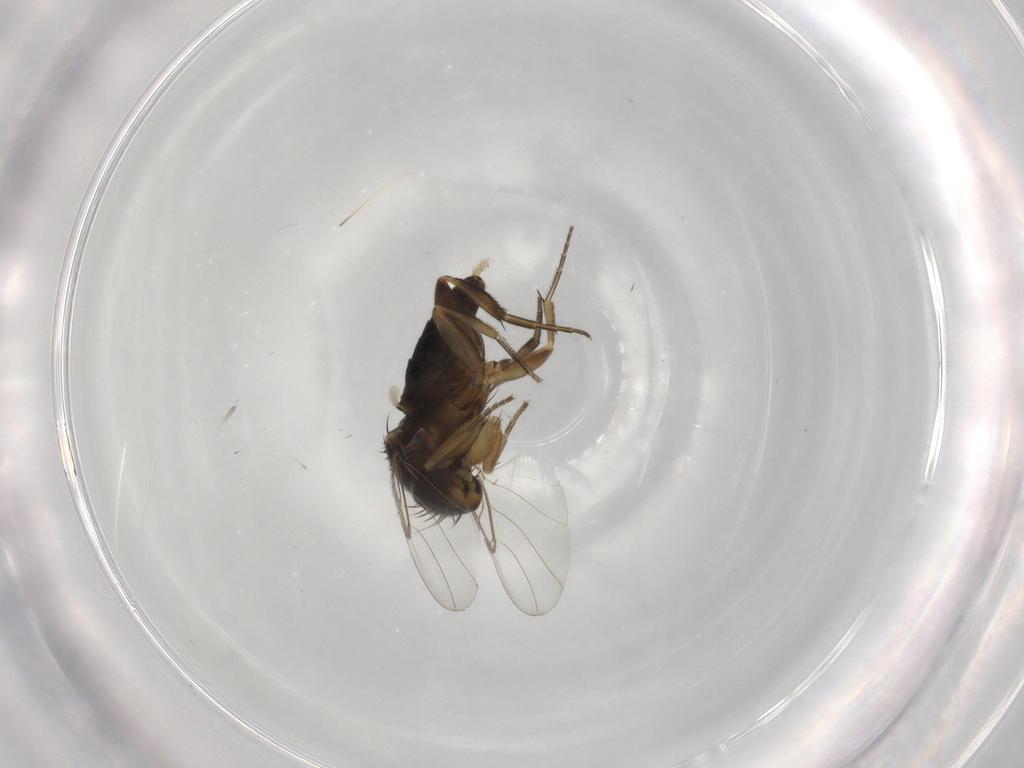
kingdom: Animalia
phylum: Arthropoda
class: Insecta
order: Diptera
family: Phoridae
